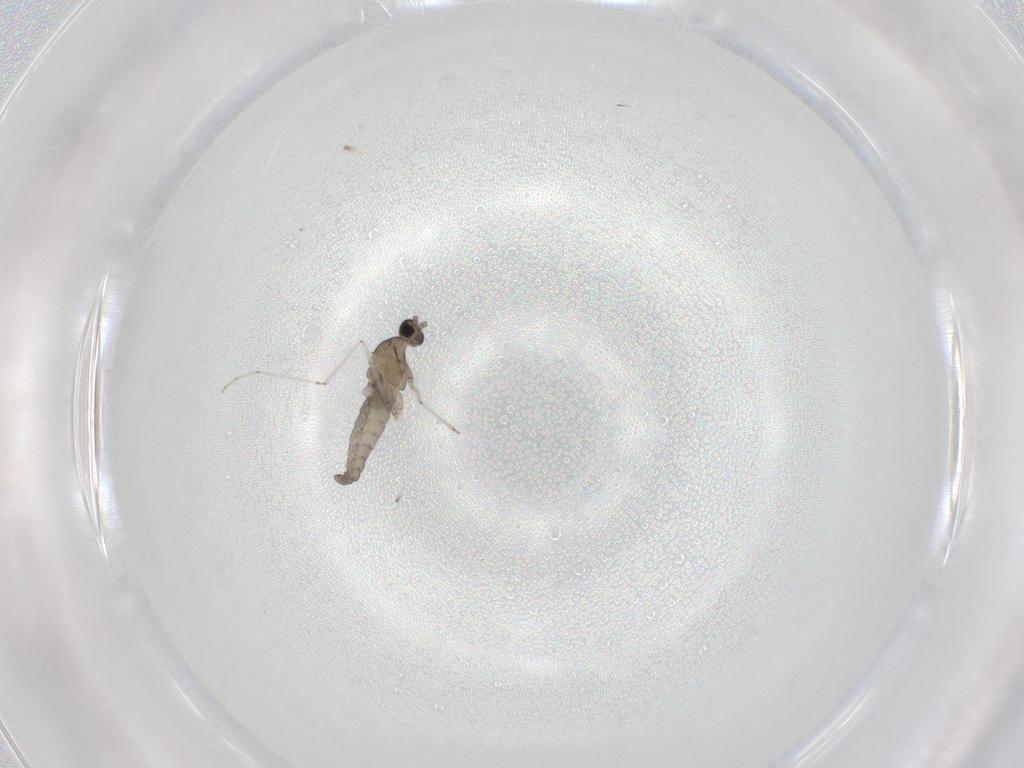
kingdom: Animalia
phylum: Arthropoda
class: Insecta
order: Diptera
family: Cecidomyiidae
